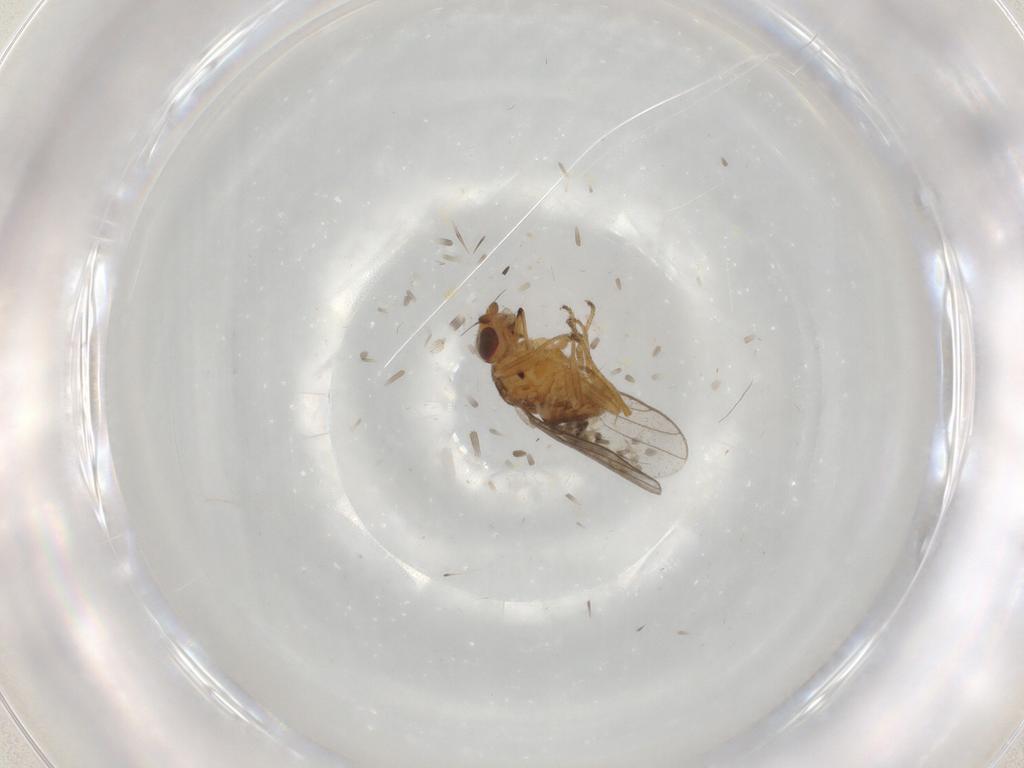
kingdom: Animalia
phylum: Arthropoda
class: Insecta
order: Diptera
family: Chloropidae
